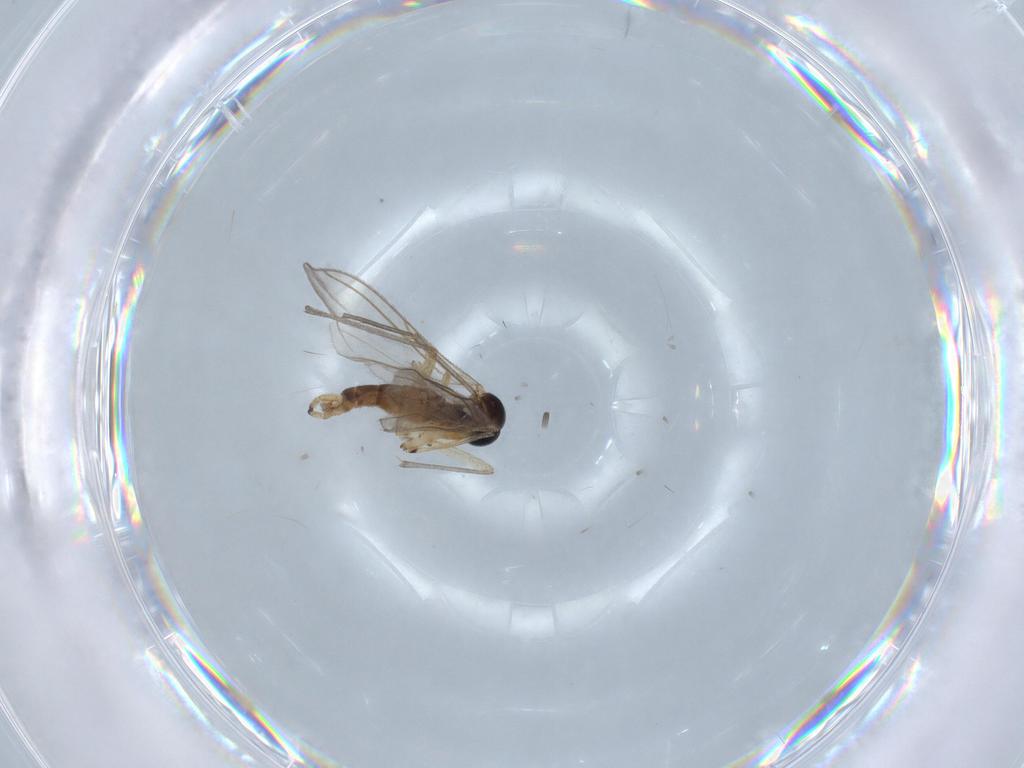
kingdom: Animalia
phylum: Arthropoda
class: Insecta
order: Diptera
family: Sciaridae
